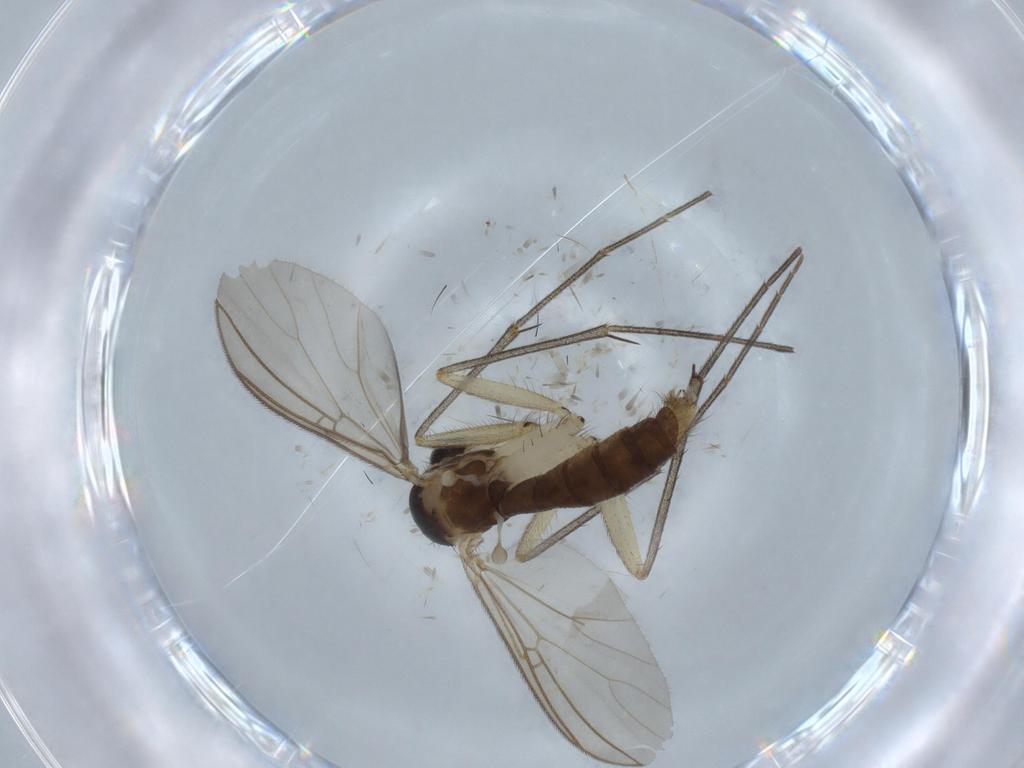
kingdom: Animalia
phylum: Arthropoda
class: Insecta
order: Diptera
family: Mycetophilidae
